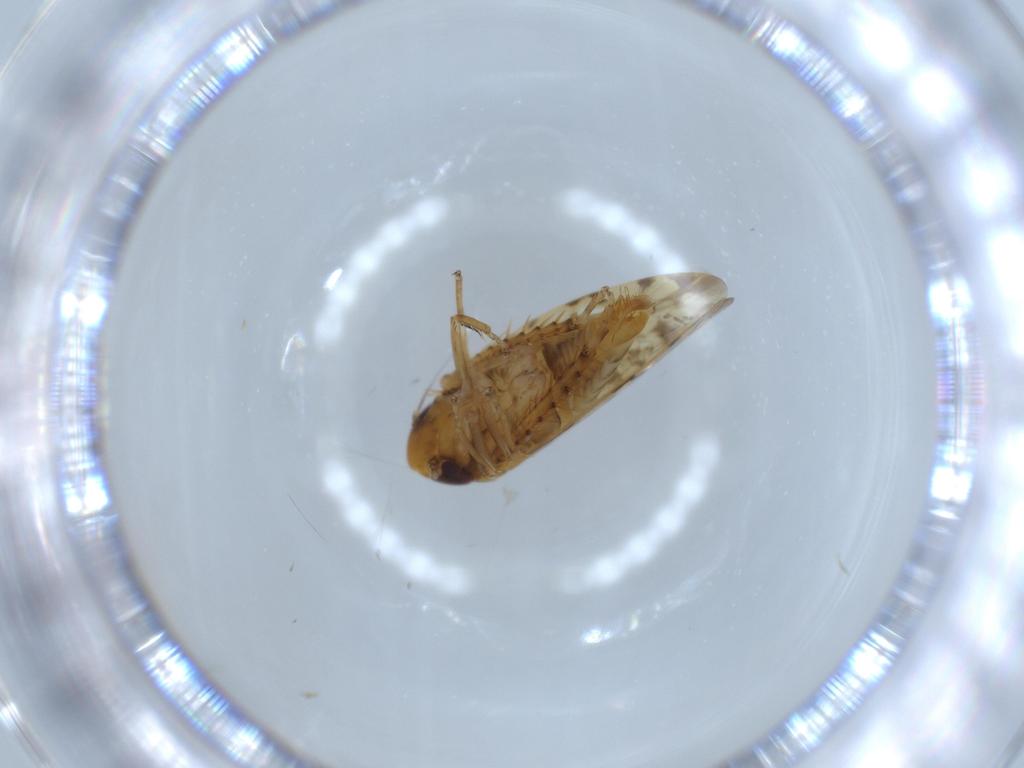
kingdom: Animalia
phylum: Arthropoda
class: Insecta
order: Hemiptera
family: Cicadellidae
